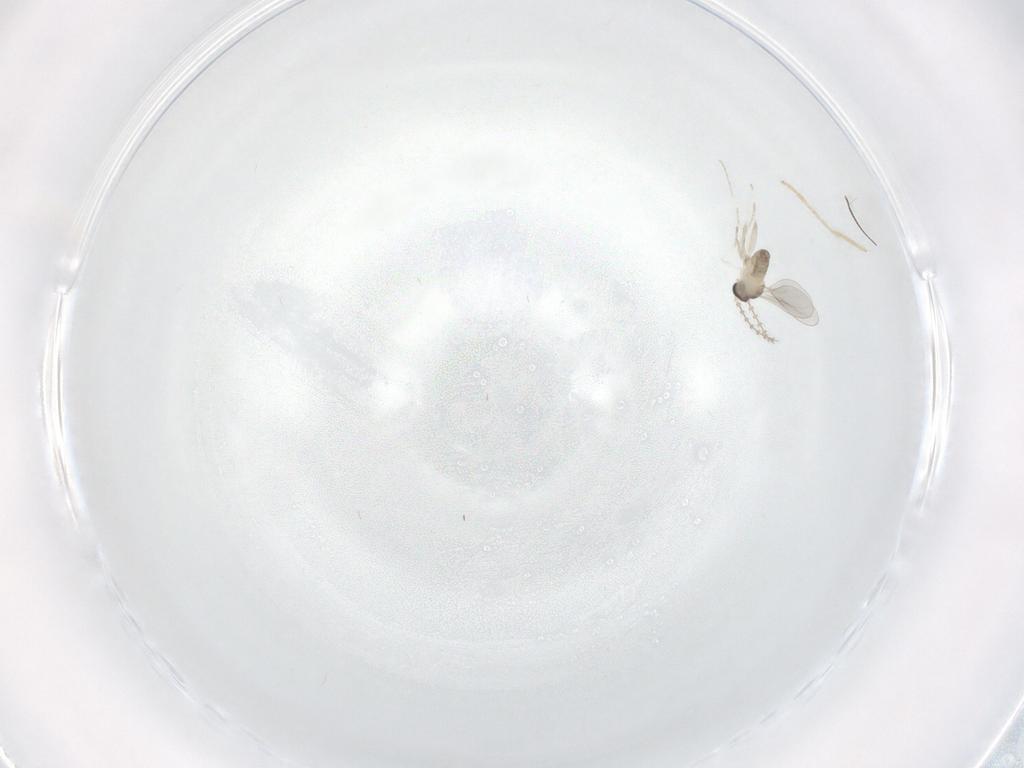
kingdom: Animalia
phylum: Arthropoda
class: Insecta
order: Diptera
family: Cecidomyiidae
